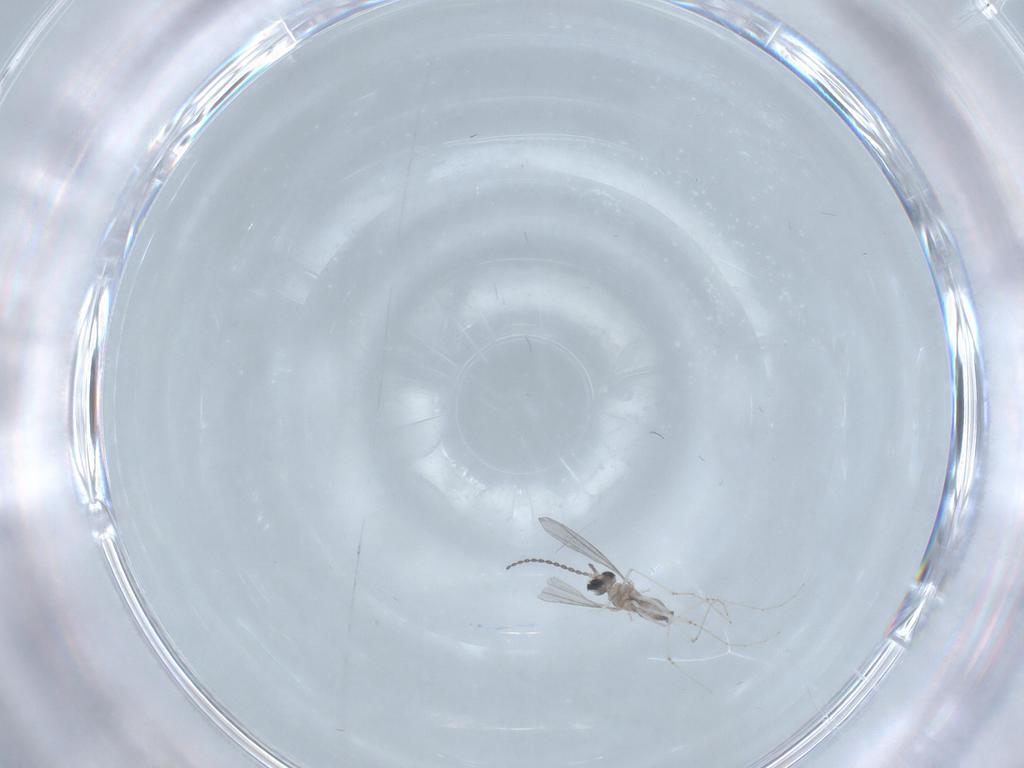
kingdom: Animalia
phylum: Arthropoda
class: Insecta
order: Diptera
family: Cecidomyiidae
